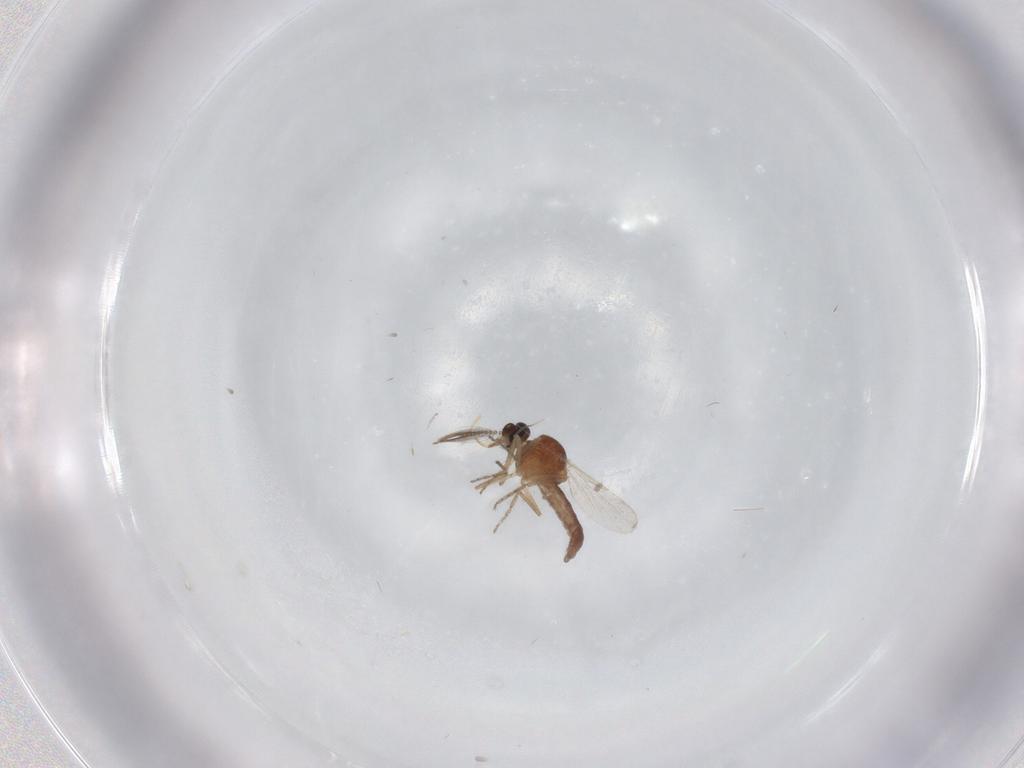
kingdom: Animalia
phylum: Arthropoda
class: Insecta
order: Diptera
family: Ceratopogonidae
